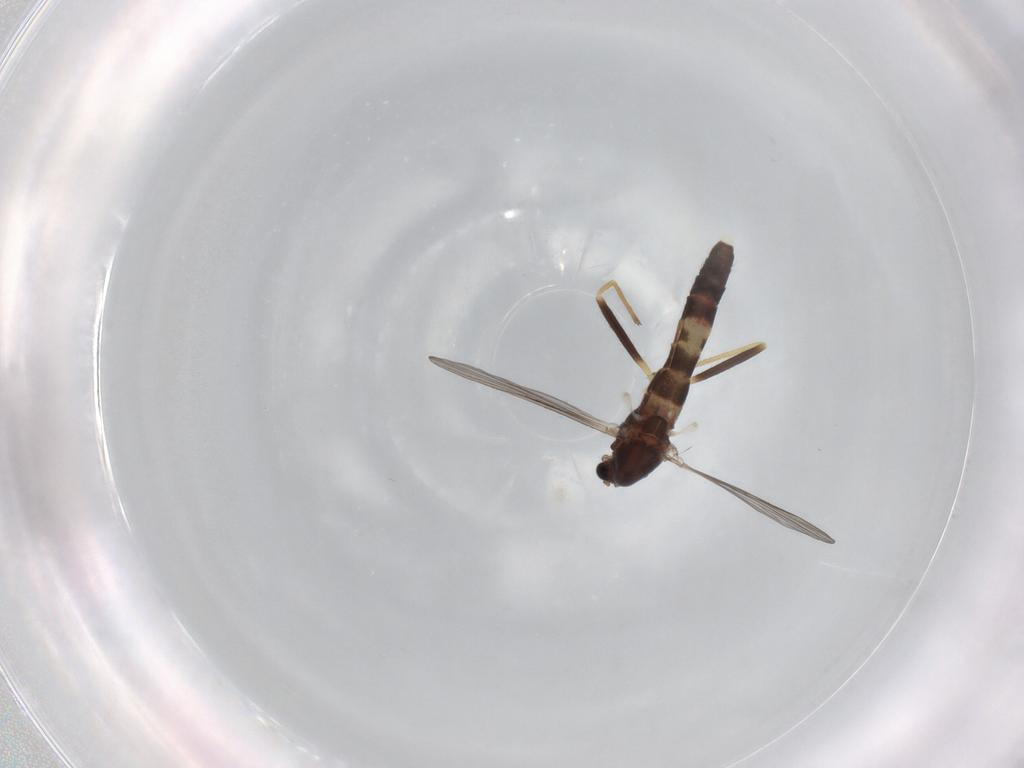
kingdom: Animalia
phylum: Arthropoda
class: Insecta
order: Diptera
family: Chironomidae
